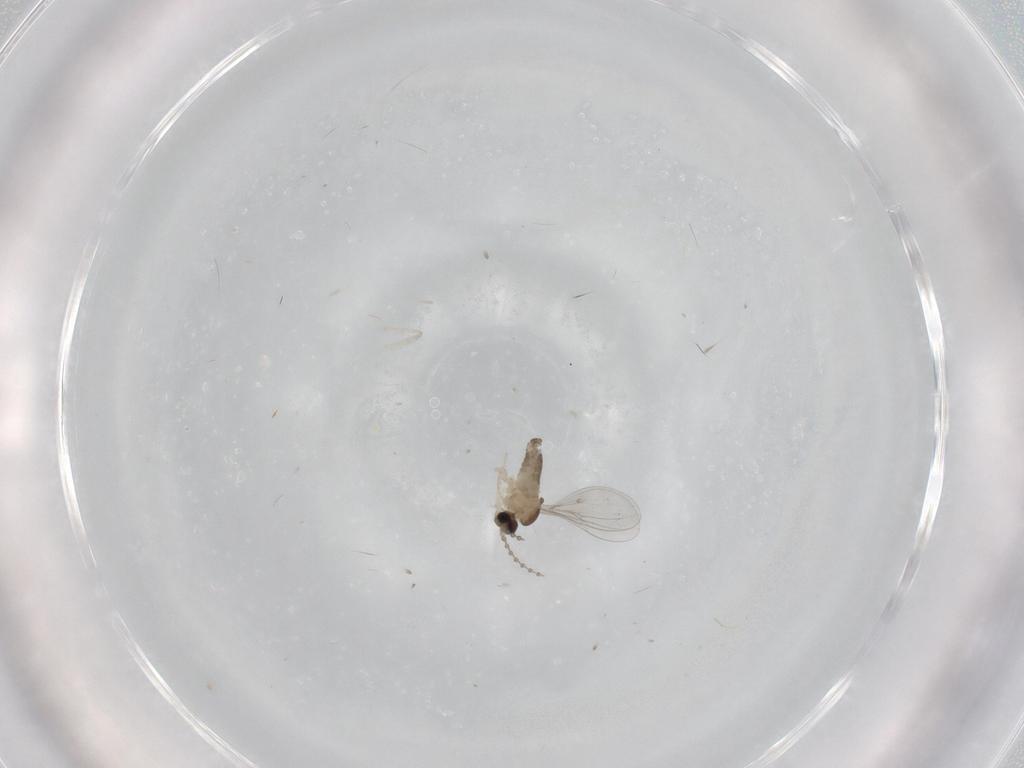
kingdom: Animalia
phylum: Arthropoda
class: Insecta
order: Diptera
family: Cecidomyiidae
